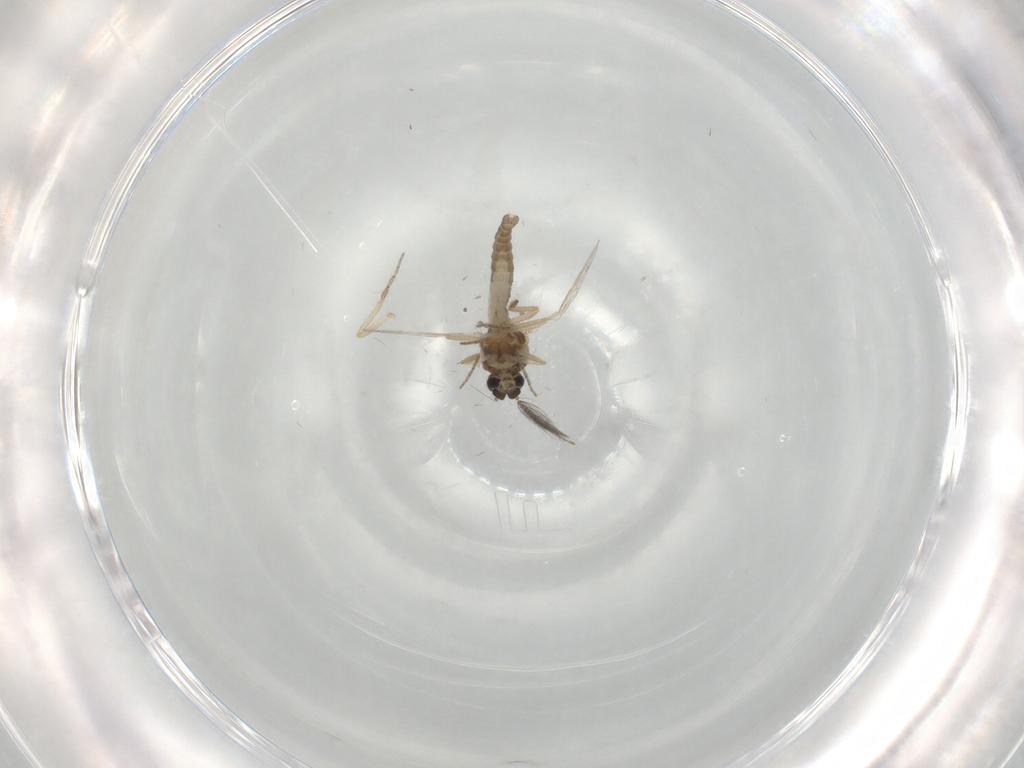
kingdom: Animalia
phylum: Arthropoda
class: Insecta
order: Diptera
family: Ceratopogonidae
